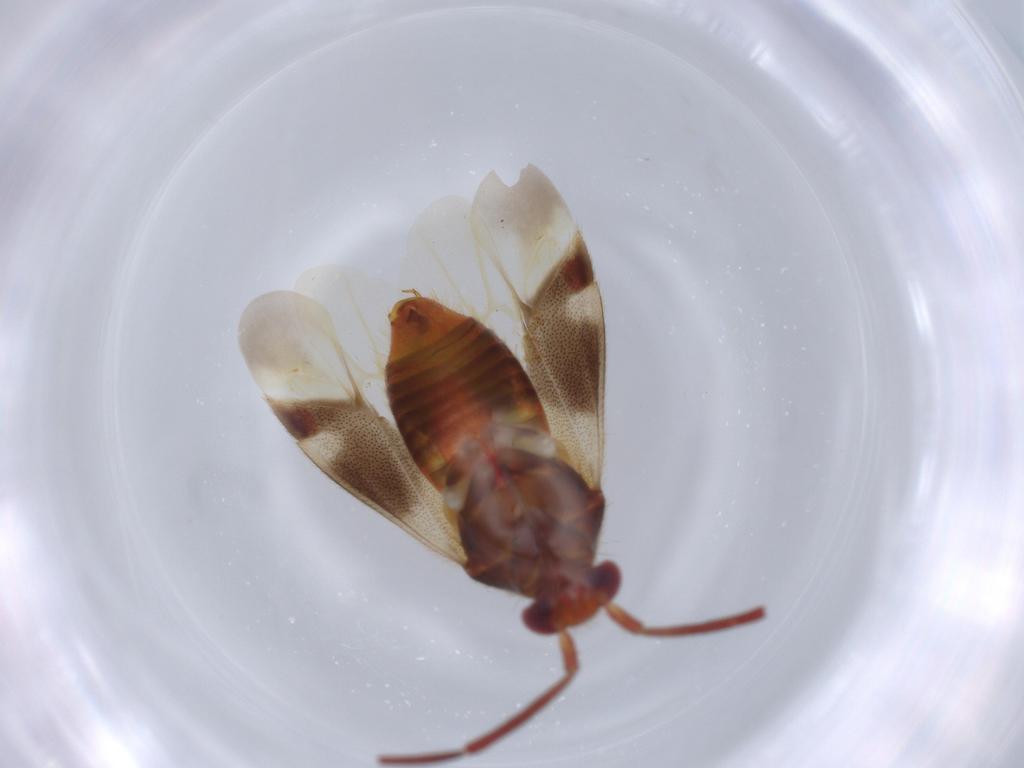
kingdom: Animalia
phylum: Arthropoda
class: Insecta
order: Hemiptera
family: Miridae
